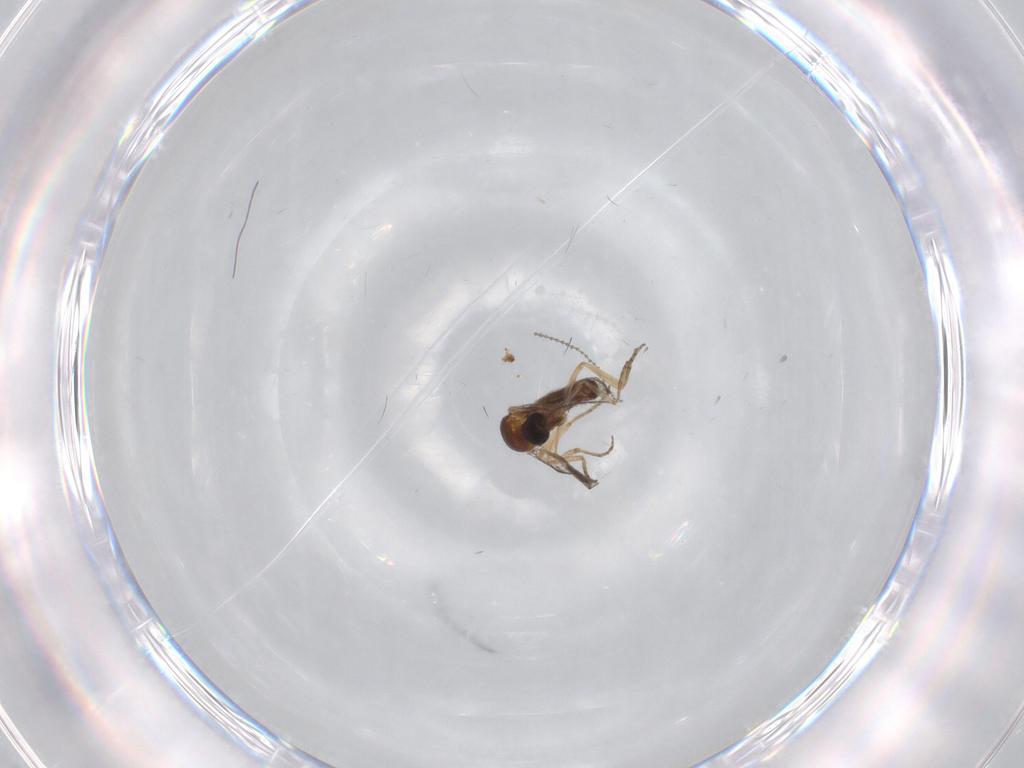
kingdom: Animalia
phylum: Arthropoda
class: Insecta
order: Diptera
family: Ceratopogonidae
